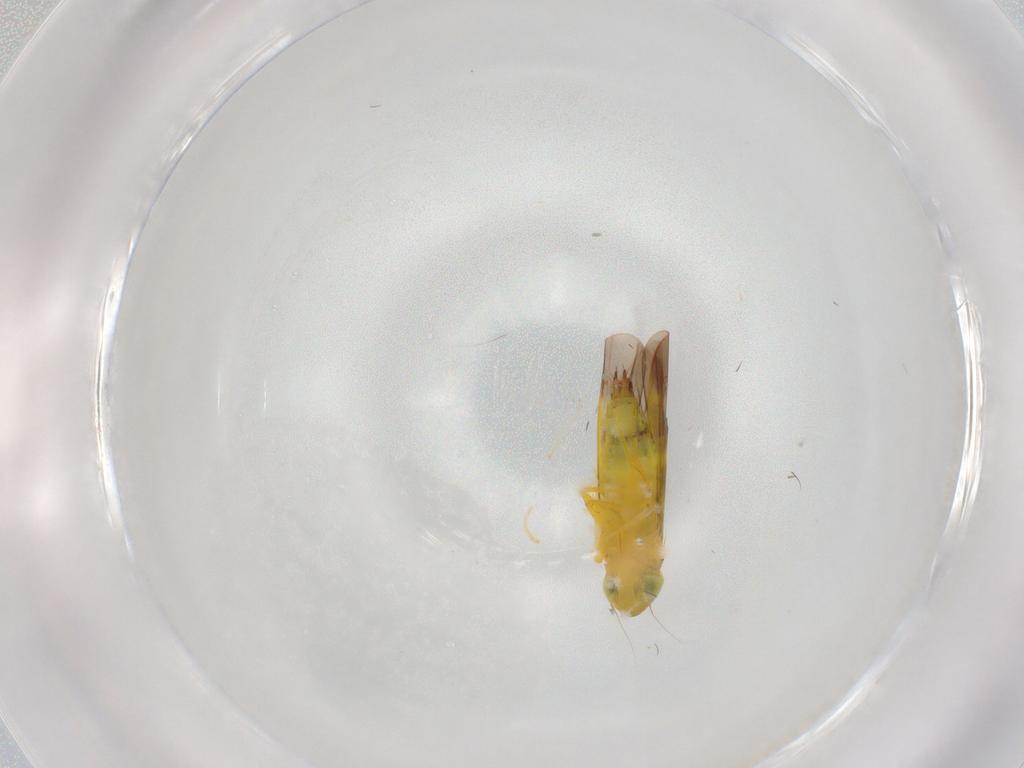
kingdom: Animalia
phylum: Arthropoda
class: Insecta
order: Hemiptera
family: Cicadellidae
